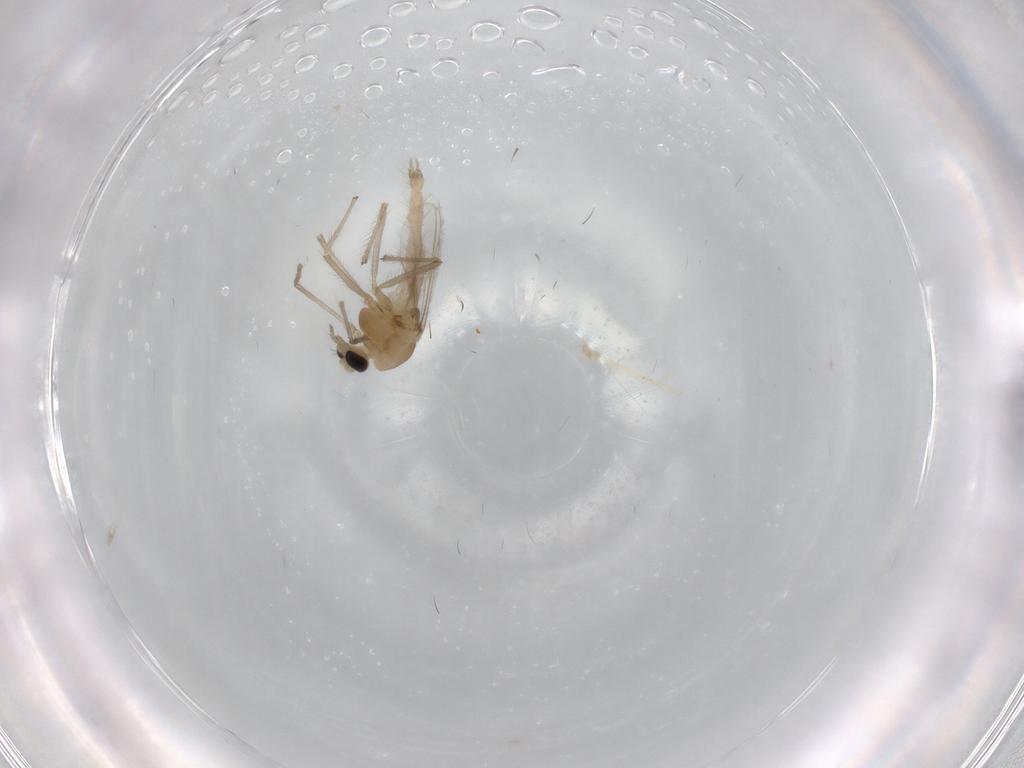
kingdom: Animalia
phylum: Arthropoda
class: Insecta
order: Diptera
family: Chironomidae
